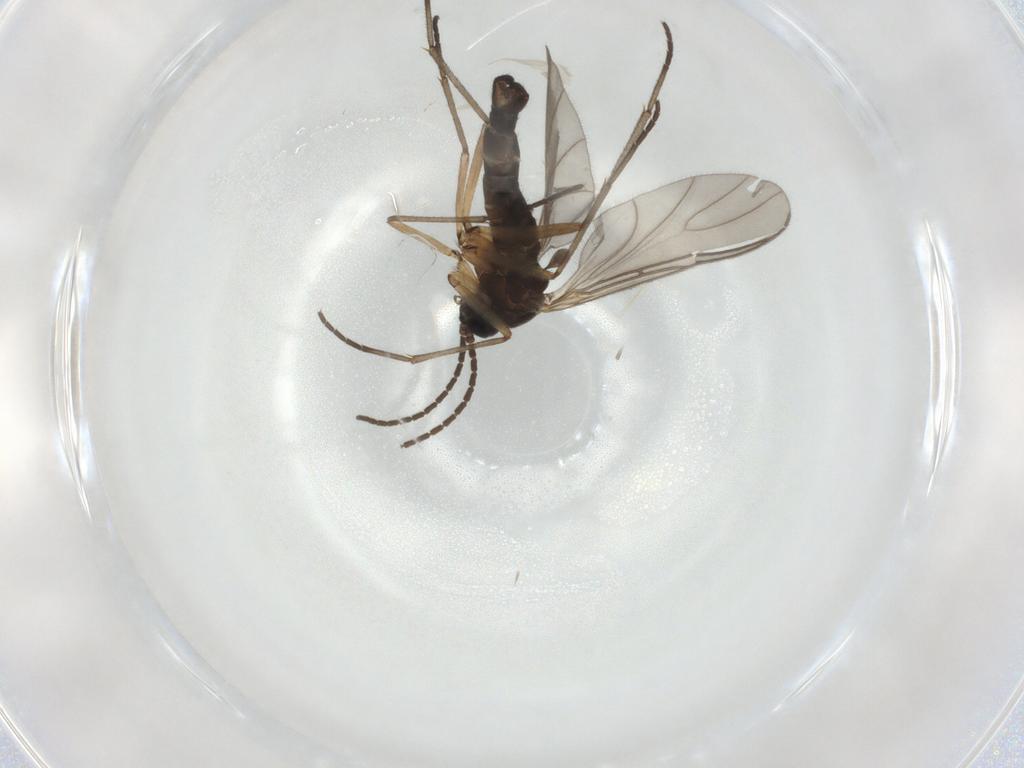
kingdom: Animalia
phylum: Arthropoda
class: Insecta
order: Diptera
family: Sciaridae
